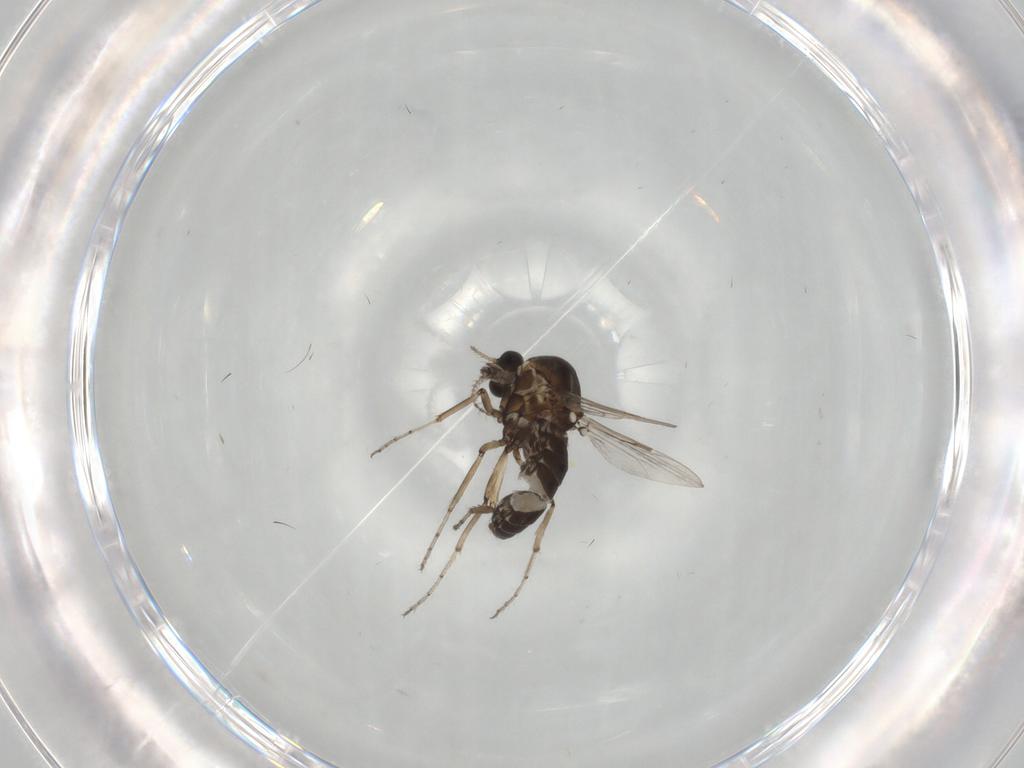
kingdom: Animalia
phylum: Arthropoda
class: Insecta
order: Diptera
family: Ceratopogonidae
